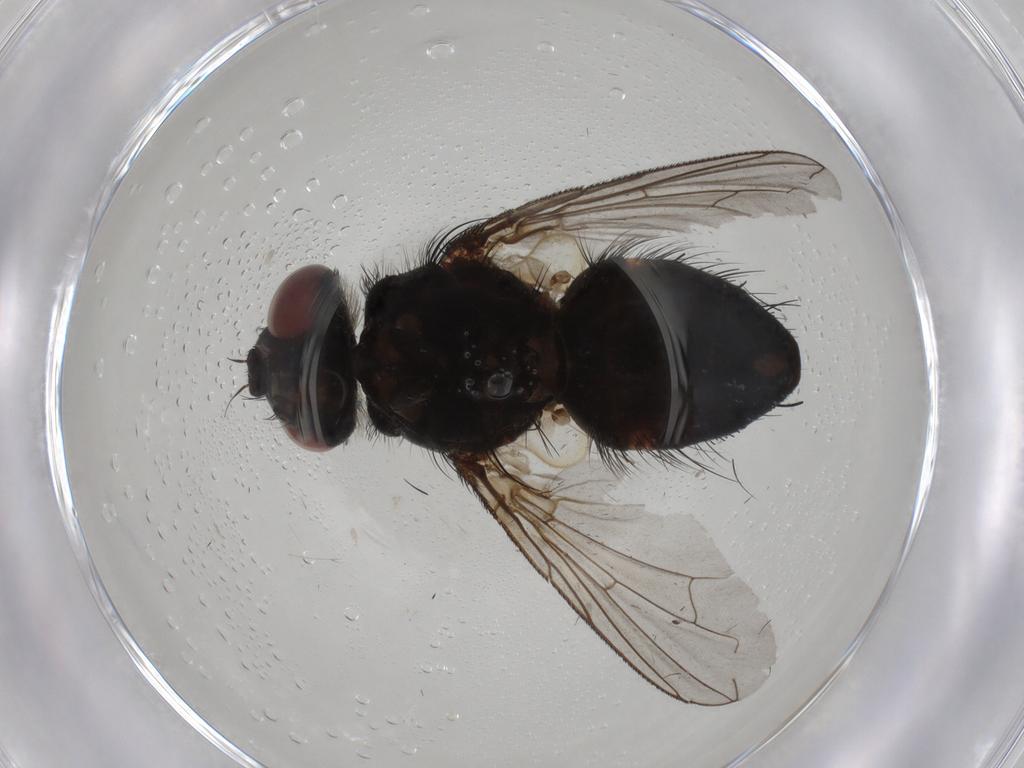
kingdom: Animalia
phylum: Arthropoda
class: Insecta
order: Diptera
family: Tachinidae
